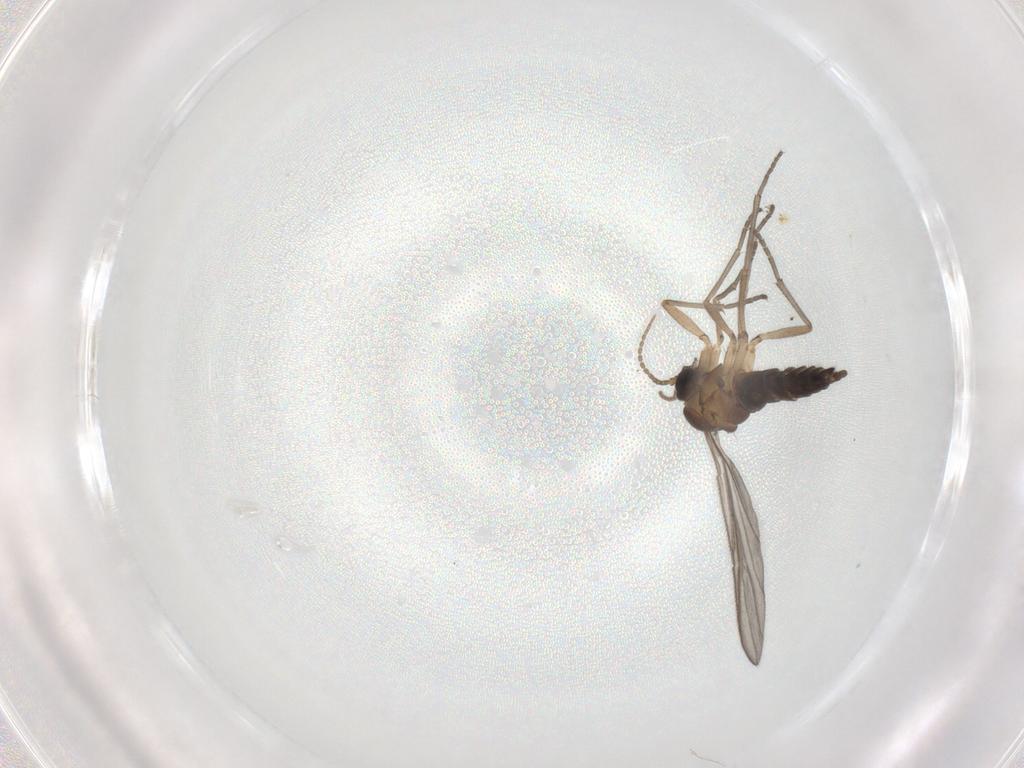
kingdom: Animalia
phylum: Arthropoda
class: Insecta
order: Diptera
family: Sciaridae
